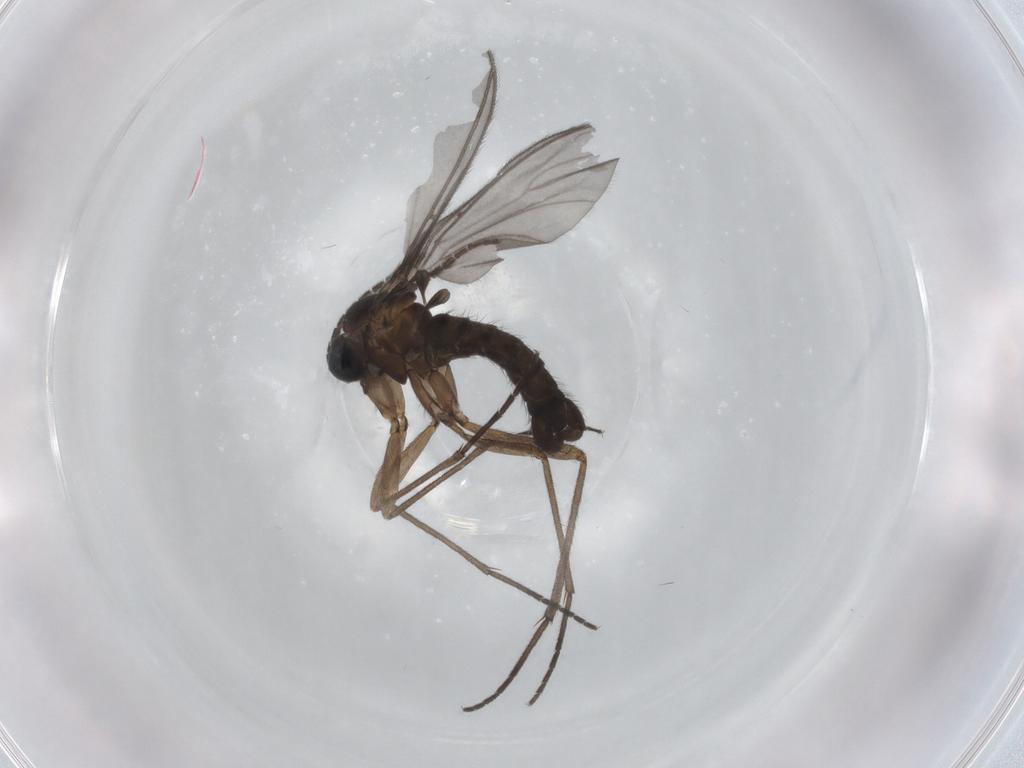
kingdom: Animalia
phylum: Arthropoda
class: Insecta
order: Diptera
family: Sciaridae
